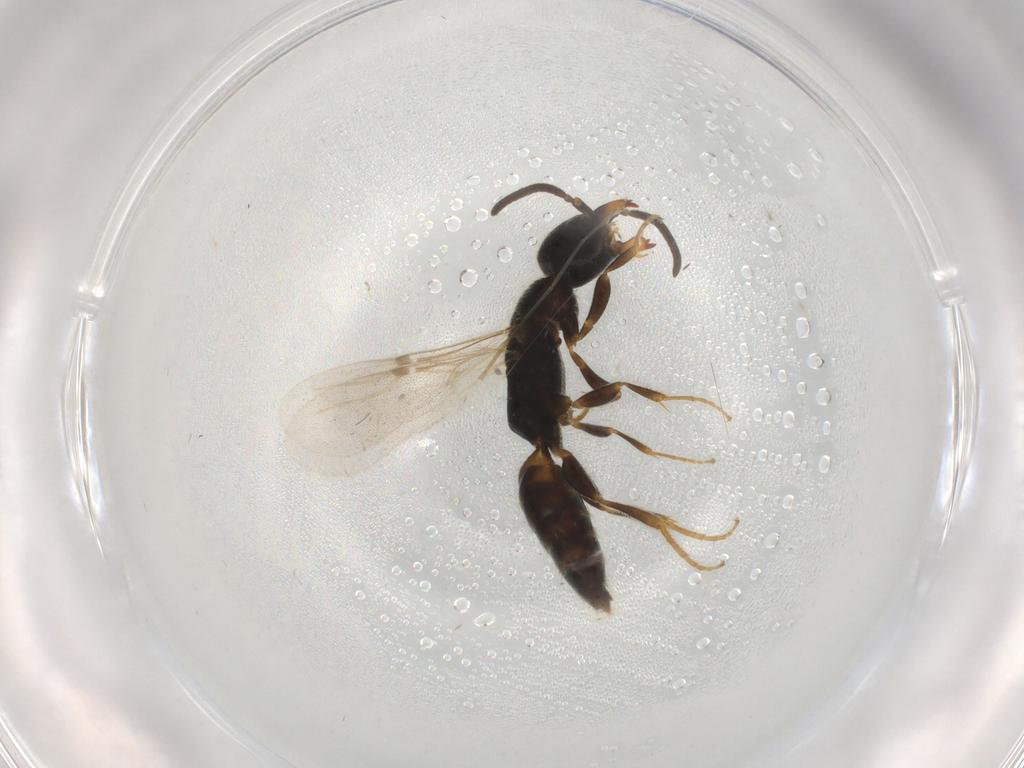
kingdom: Animalia
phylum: Arthropoda
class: Insecta
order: Hymenoptera
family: Bethylidae
